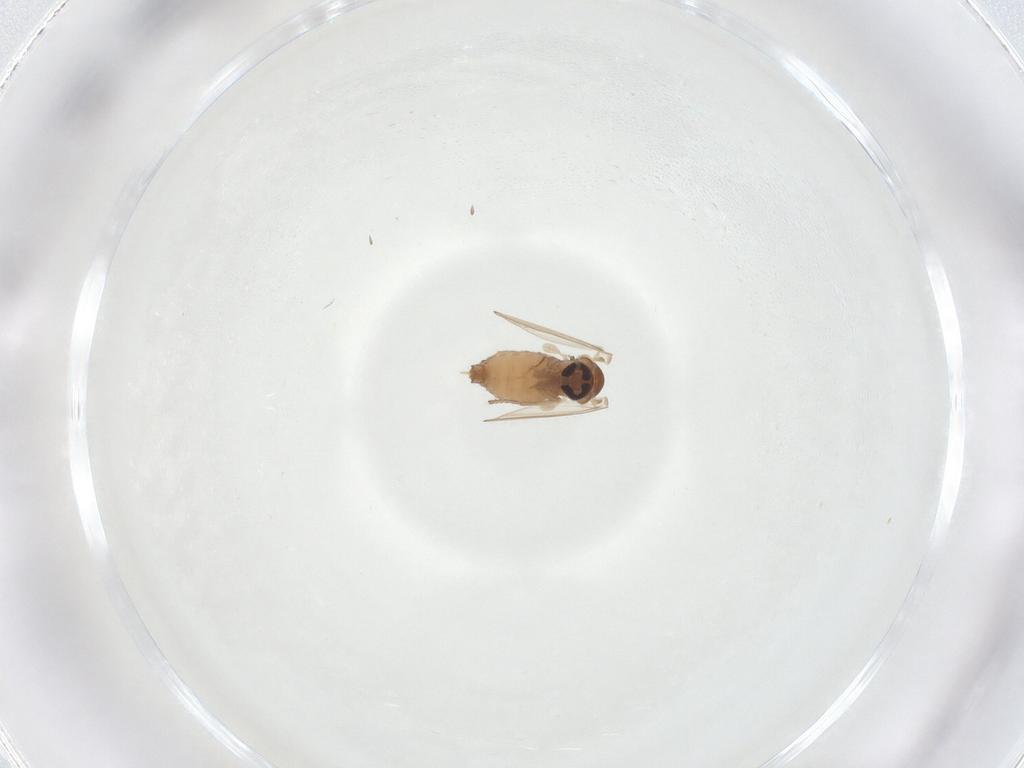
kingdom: Animalia
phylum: Arthropoda
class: Insecta
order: Diptera
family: Psychodidae
